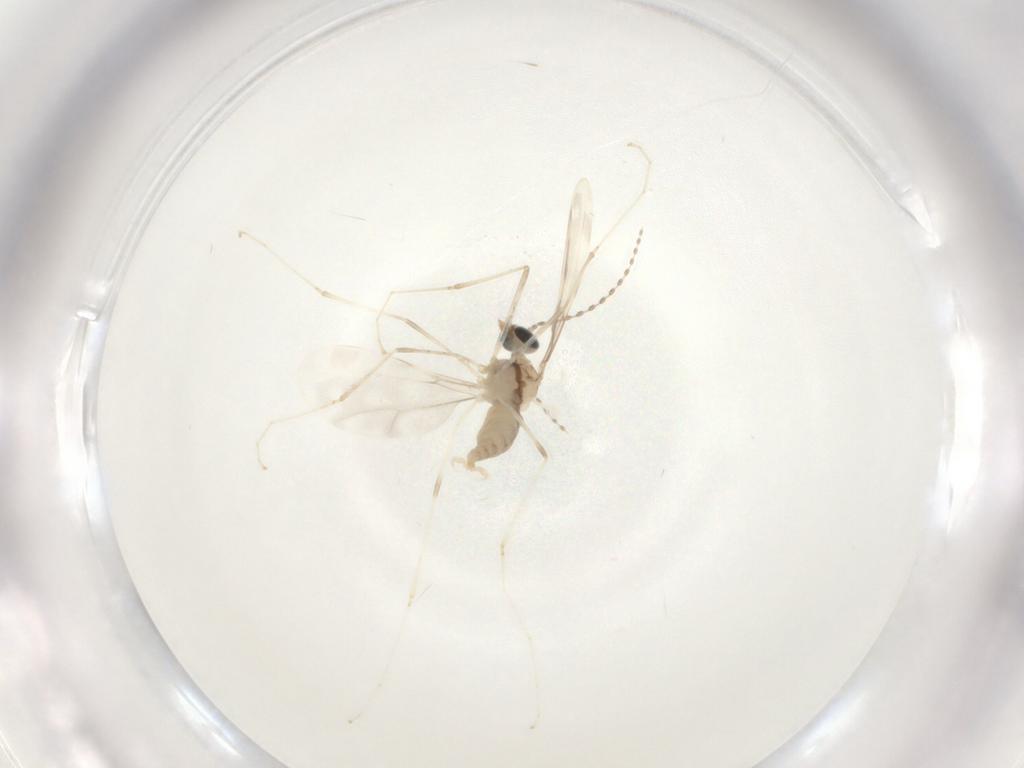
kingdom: Animalia
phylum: Arthropoda
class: Insecta
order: Diptera
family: Cecidomyiidae
